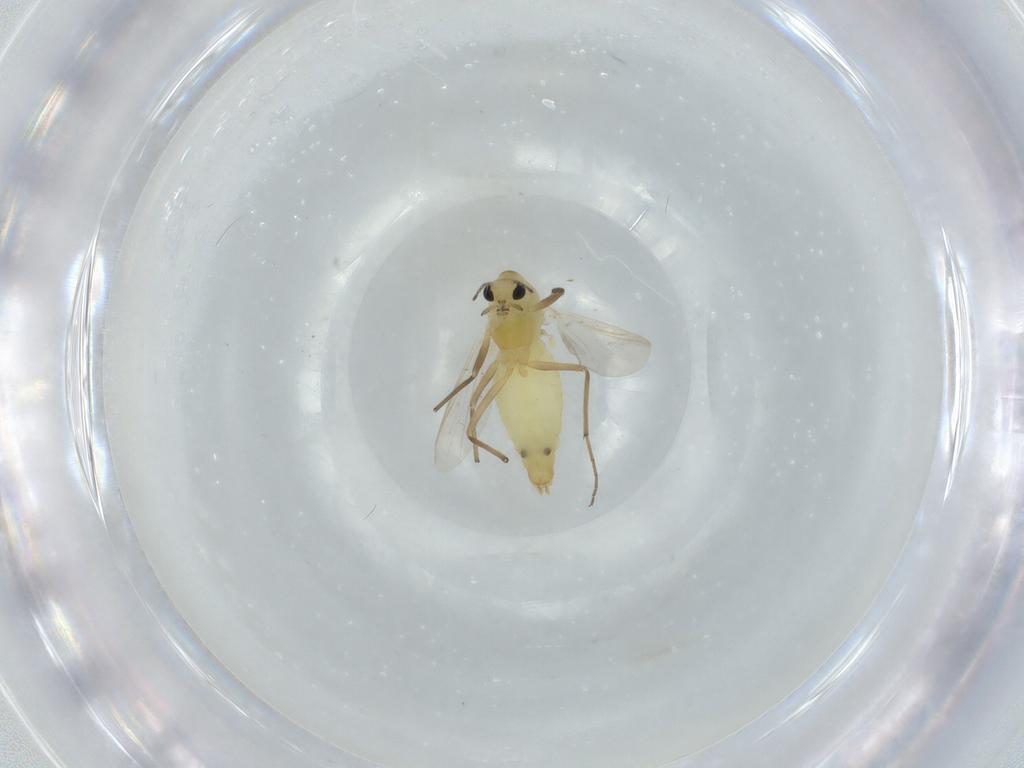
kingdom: Animalia
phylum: Arthropoda
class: Insecta
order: Diptera
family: Chironomidae
